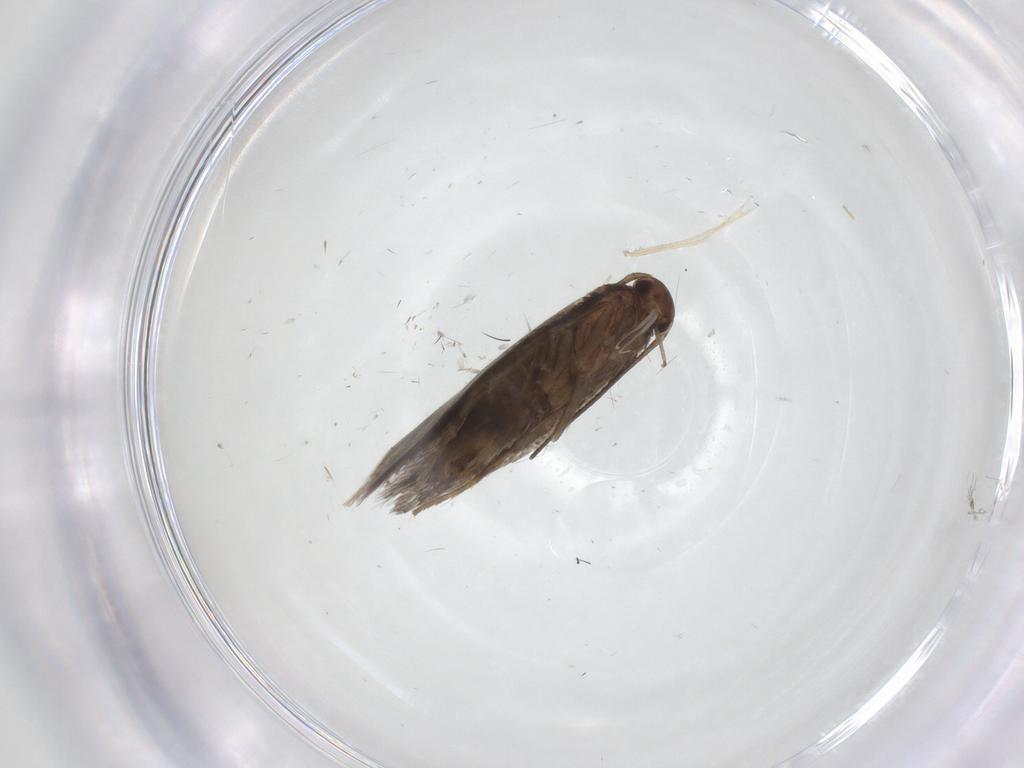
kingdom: Animalia
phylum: Arthropoda
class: Insecta
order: Lepidoptera
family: Elachistidae
